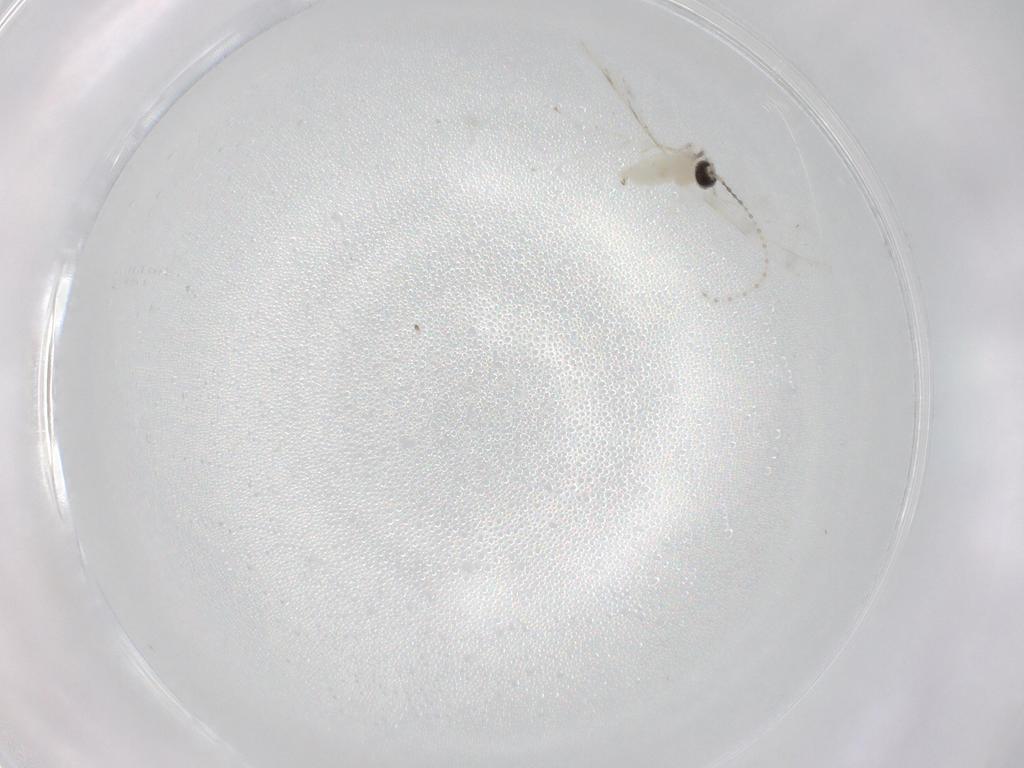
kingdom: Animalia
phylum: Arthropoda
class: Insecta
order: Diptera
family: Cecidomyiidae
